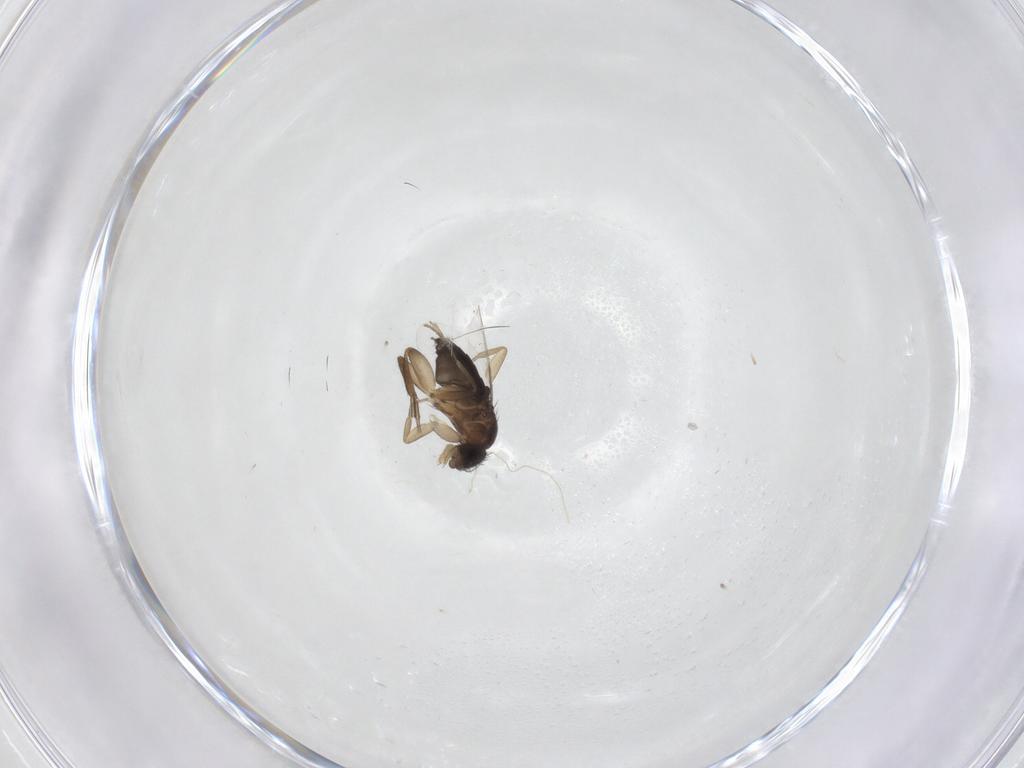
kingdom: Animalia
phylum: Arthropoda
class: Insecta
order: Diptera
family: Phoridae
